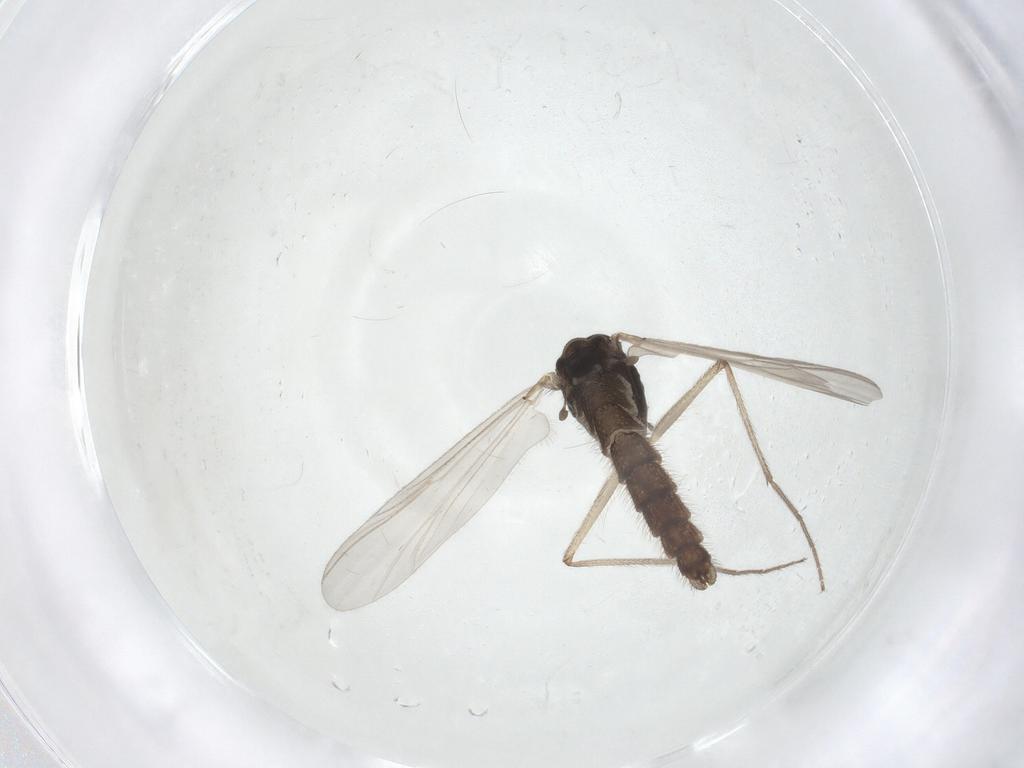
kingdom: Animalia
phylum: Arthropoda
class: Insecta
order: Diptera
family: Chironomidae
